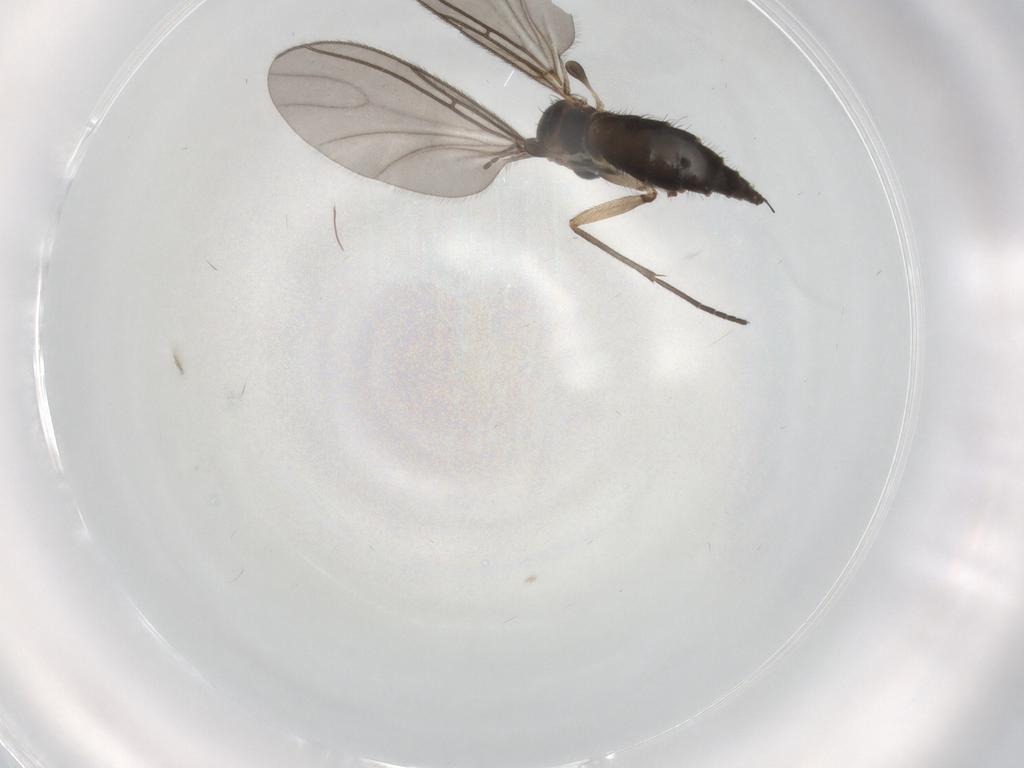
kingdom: Animalia
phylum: Arthropoda
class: Insecta
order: Diptera
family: Sciaridae
